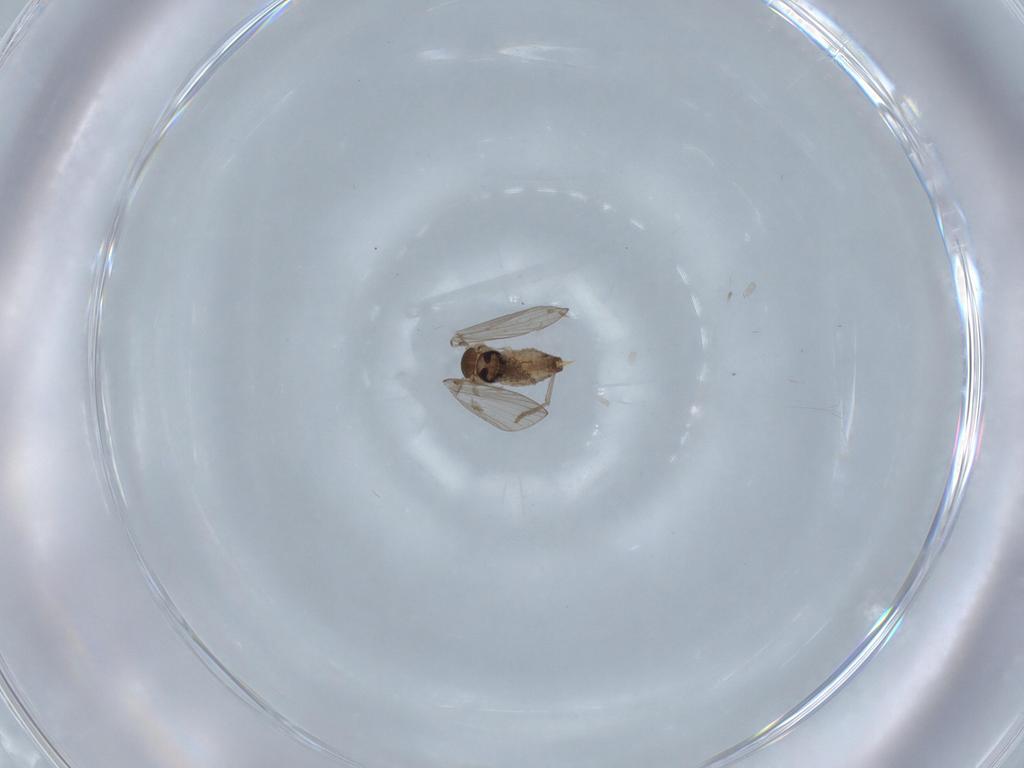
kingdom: Animalia
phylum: Arthropoda
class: Insecta
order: Diptera
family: Psychodidae
